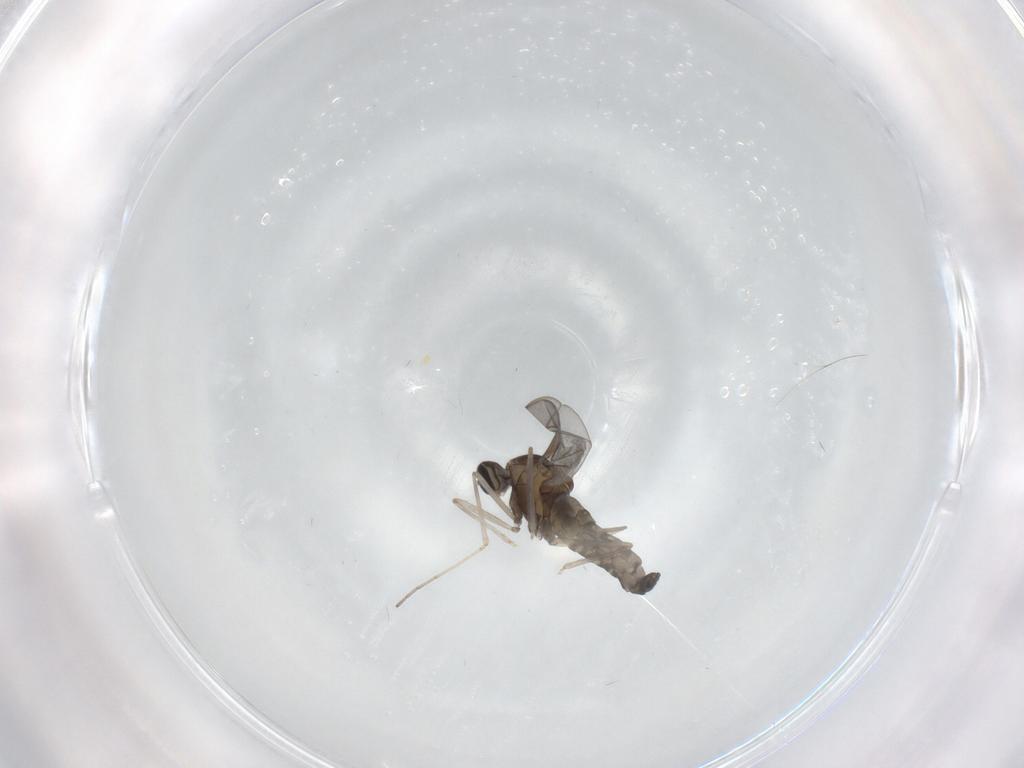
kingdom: Animalia
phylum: Arthropoda
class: Insecta
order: Diptera
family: Cecidomyiidae
